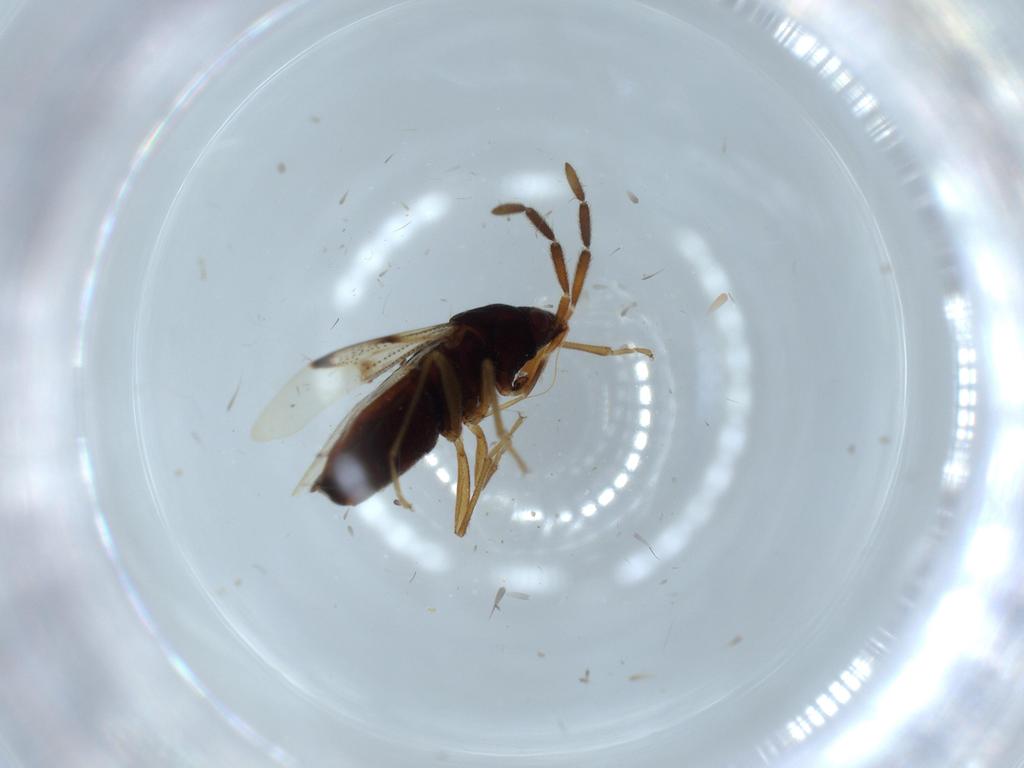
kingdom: Animalia
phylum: Arthropoda
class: Insecta
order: Hemiptera
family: Rhyparochromidae
